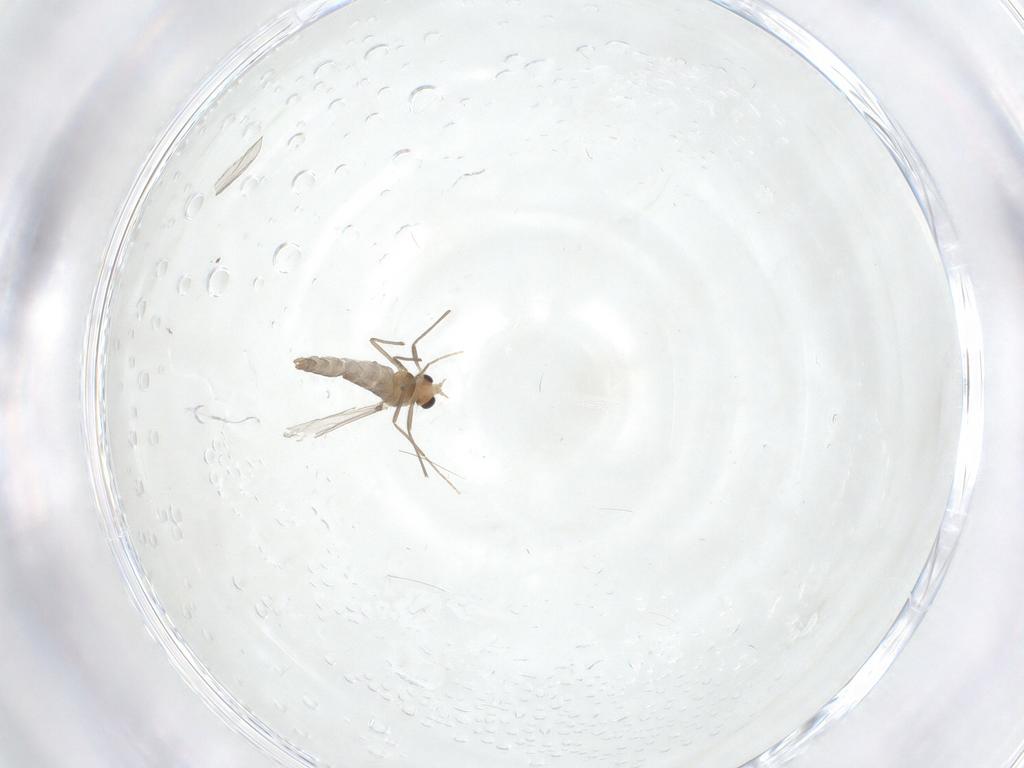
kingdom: Animalia
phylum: Arthropoda
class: Insecta
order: Diptera
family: Chironomidae
